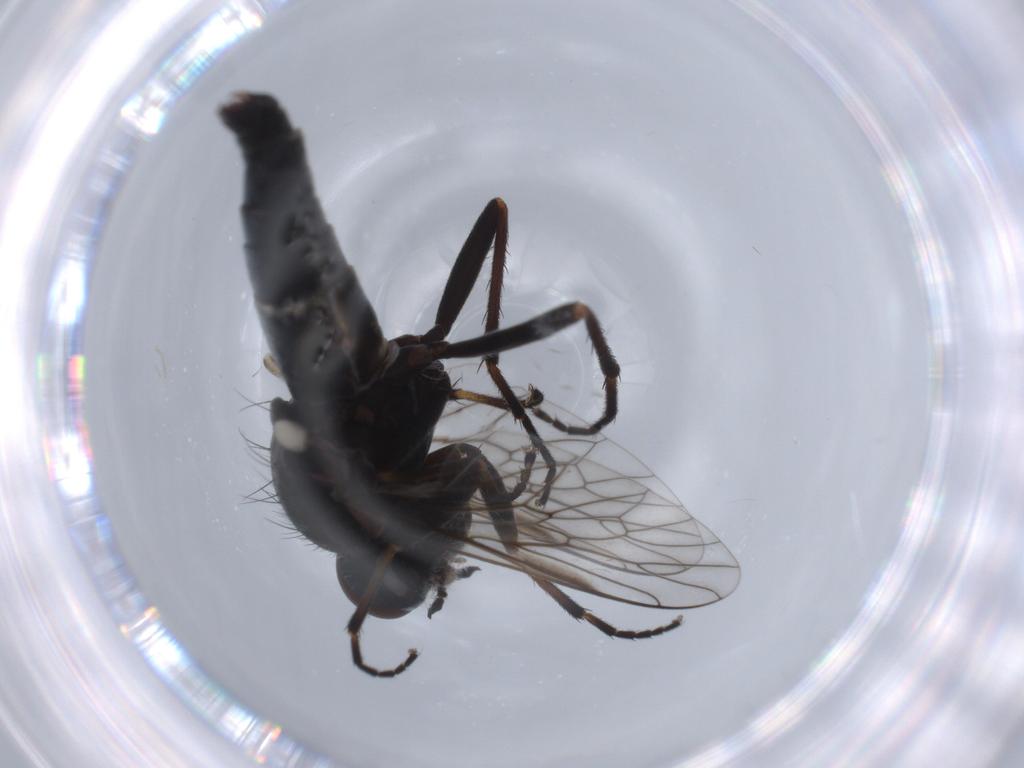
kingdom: Animalia
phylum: Arthropoda
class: Insecta
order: Diptera
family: Therevidae
